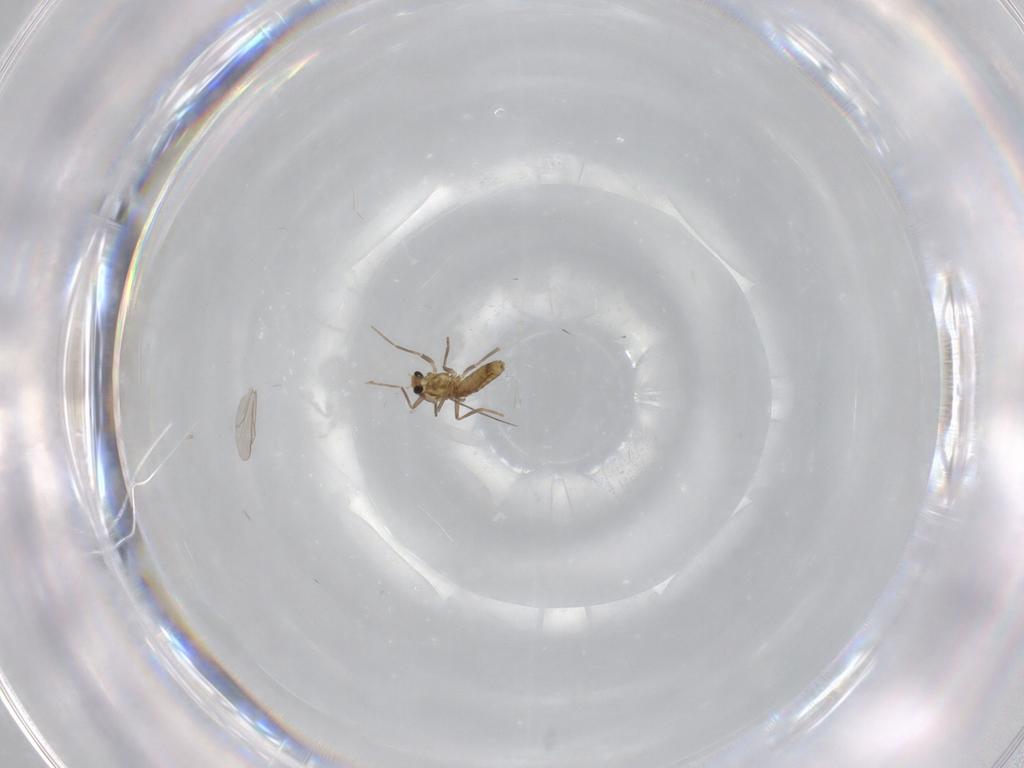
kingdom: Animalia
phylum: Arthropoda
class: Insecta
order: Diptera
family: Chironomidae
